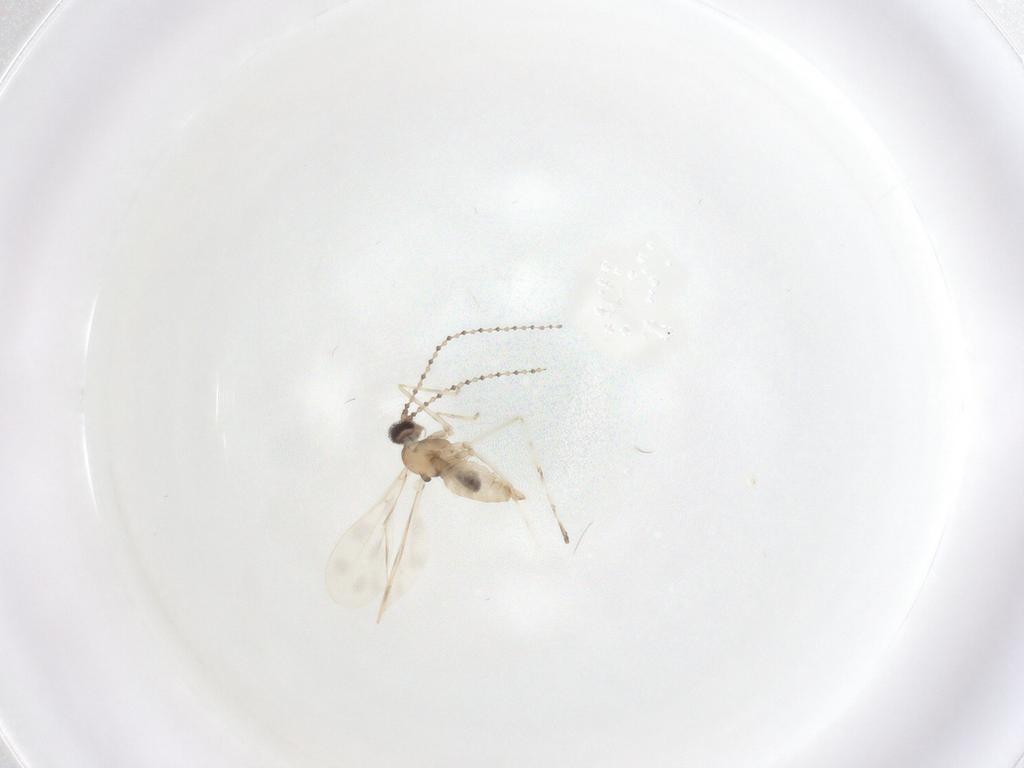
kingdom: Animalia
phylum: Arthropoda
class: Insecta
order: Diptera
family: Cecidomyiidae
